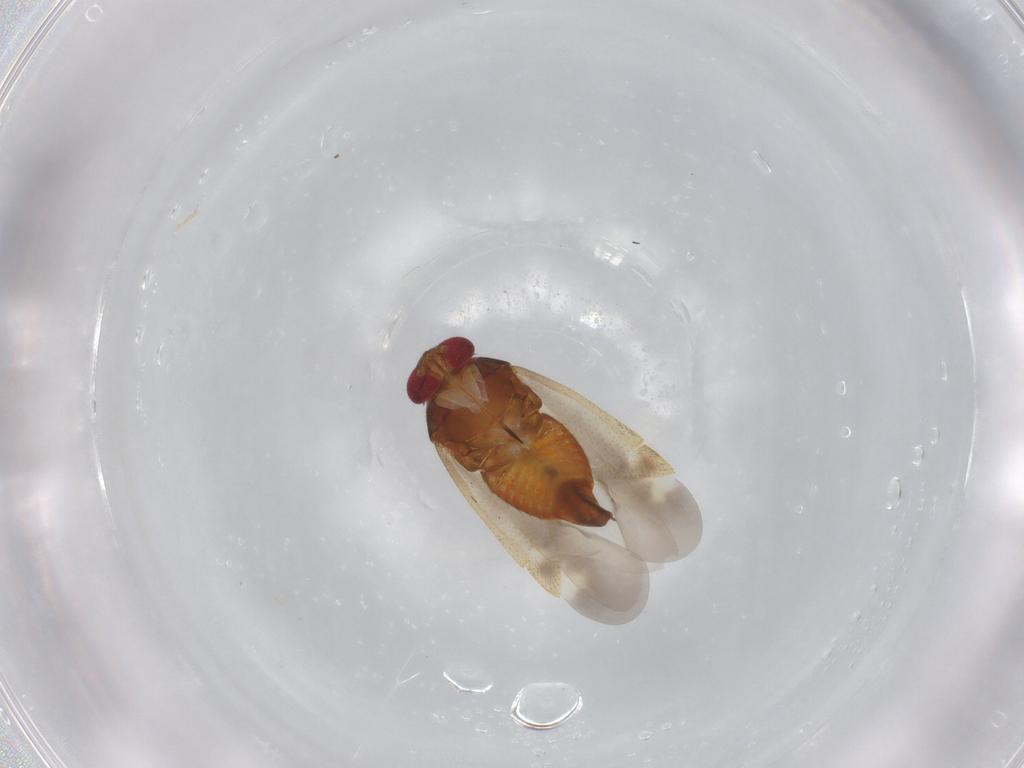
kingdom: Animalia
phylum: Arthropoda
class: Insecta
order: Hemiptera
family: Miridae
